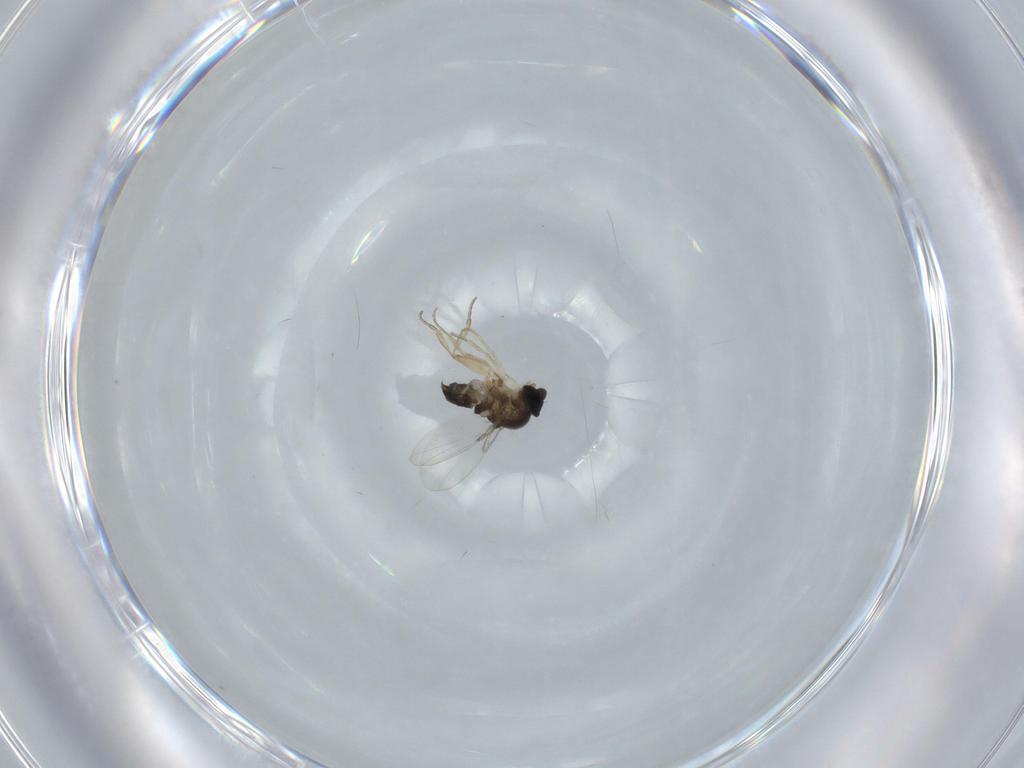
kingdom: Animalia
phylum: Arthropoda
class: Insecta
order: Diptera
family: Phoridae
